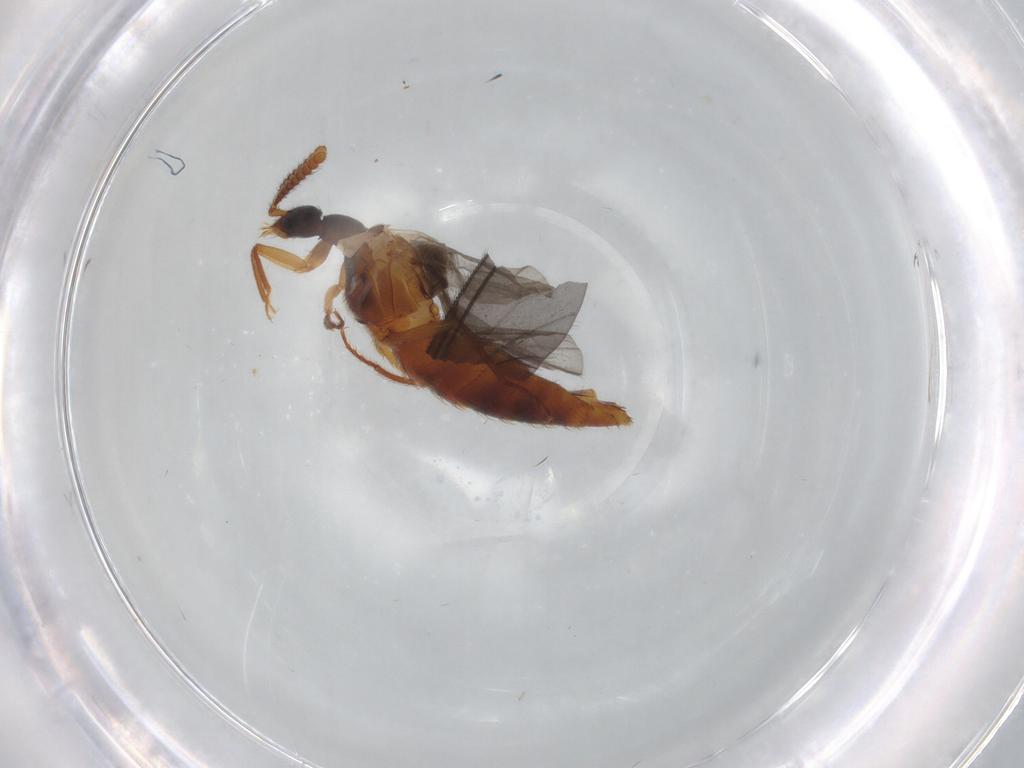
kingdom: Animalia
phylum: Arthropoda
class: Insecta
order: Coleoptera
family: Staphylinidae
